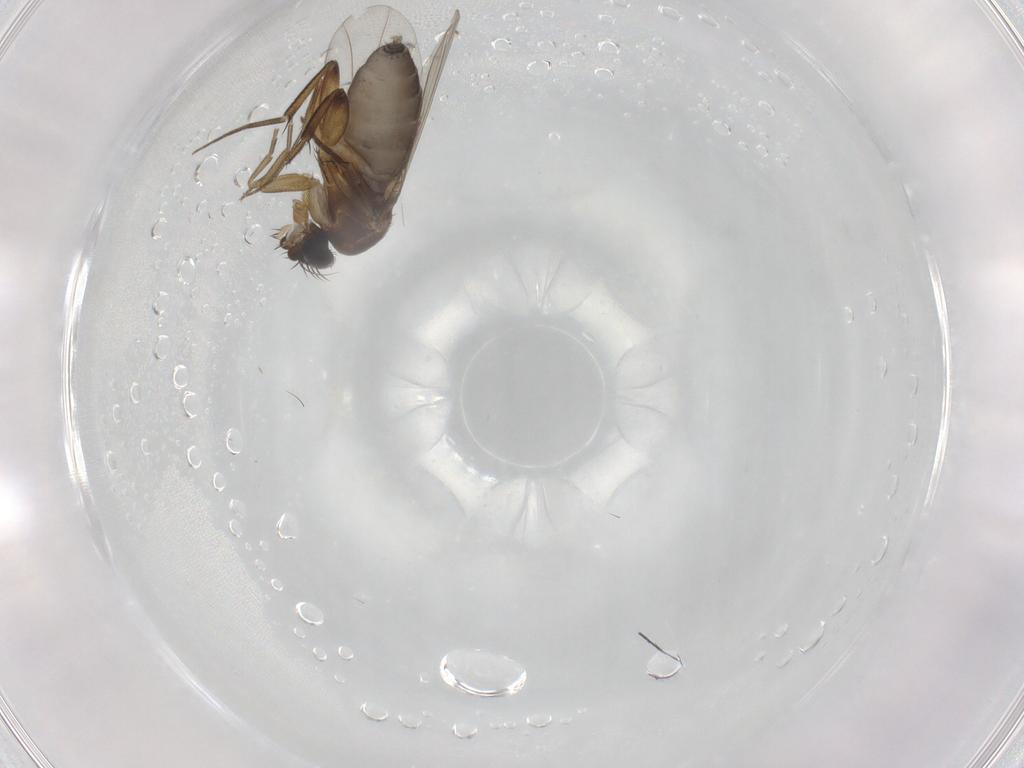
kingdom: Animalia
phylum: Arthropoda
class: Insecta
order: Diptera
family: Phoridae
